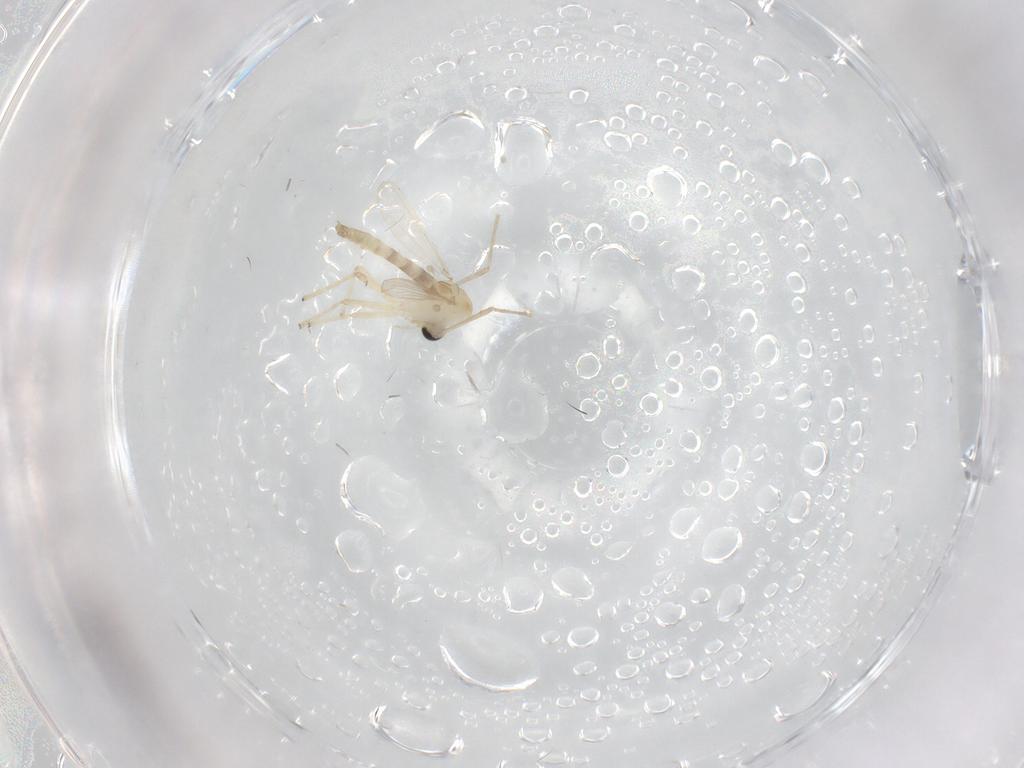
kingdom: Animalia
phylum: Arthropoda
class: Insecta
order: Diptera
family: Chironomidae
